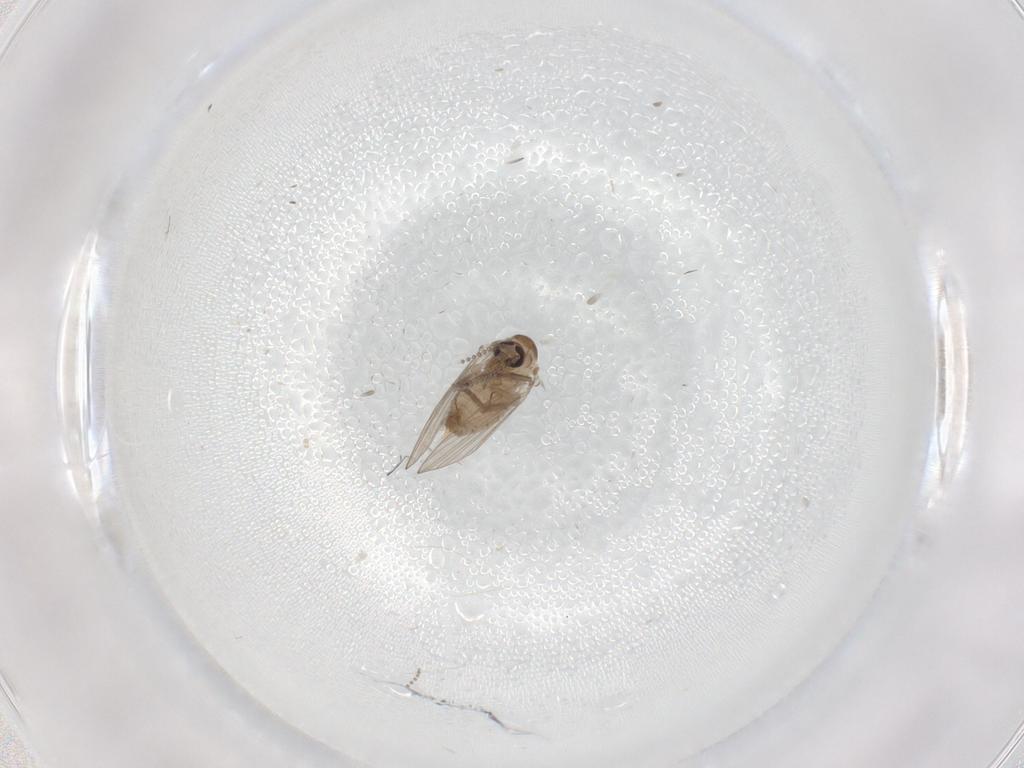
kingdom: Animalia
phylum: Arthropoda
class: Insecta
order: Diptera
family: Psychodidae
